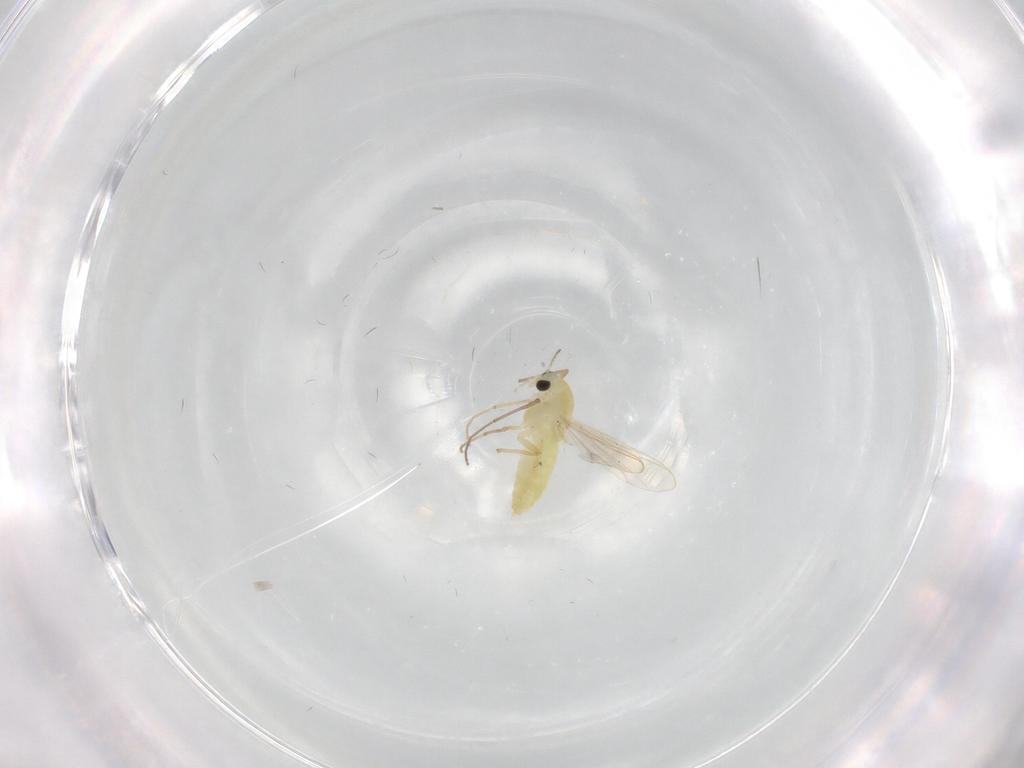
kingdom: Animalia
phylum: Arthropoda
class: Insecta
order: Diptera
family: Chironomidae
